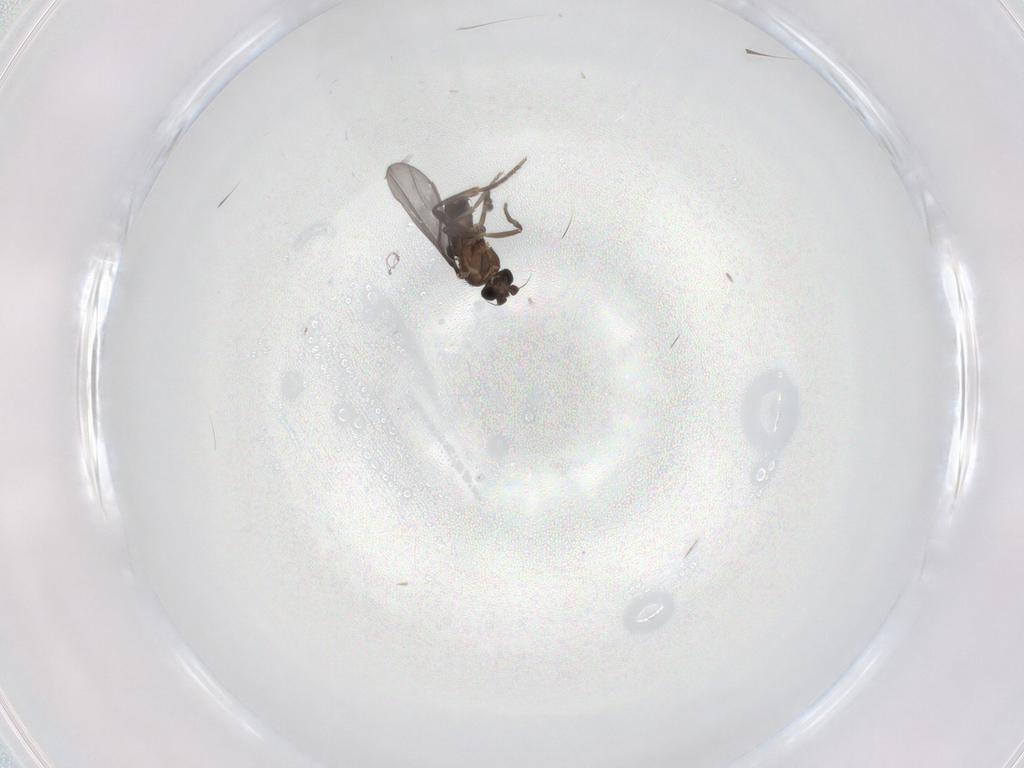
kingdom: Animalia
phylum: Arthropoda
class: Insecta
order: Diptera
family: Phoridae
